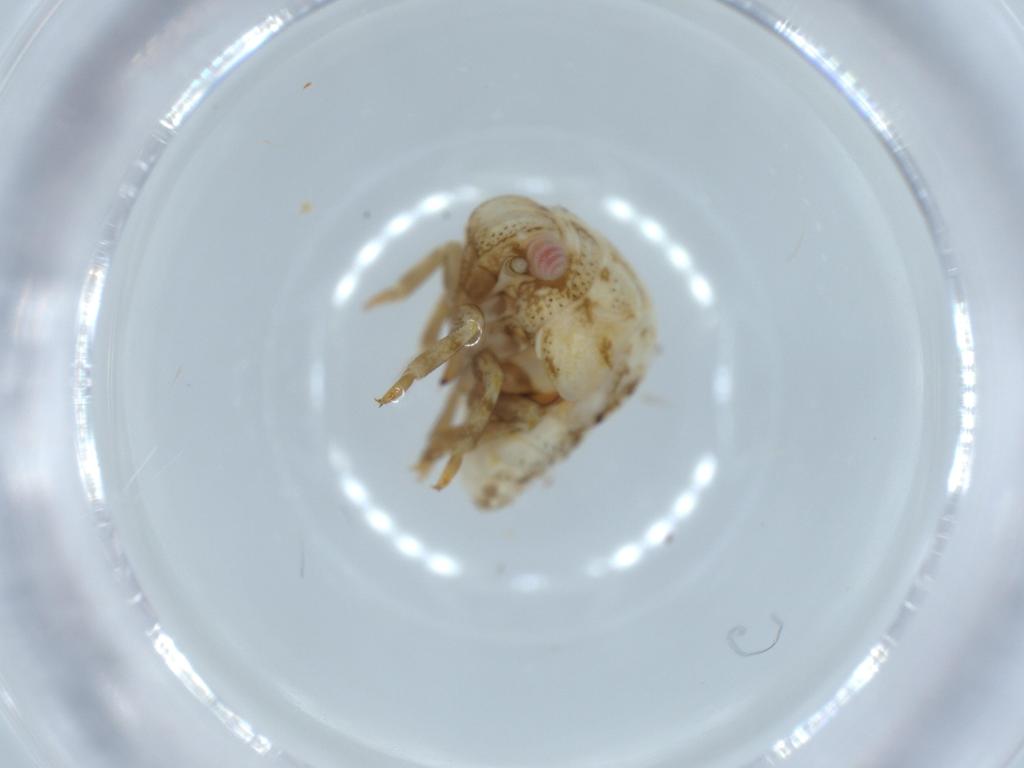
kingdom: Animalia
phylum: Arthropoda
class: Insecta
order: Hemiptera
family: Acanaloniidae
